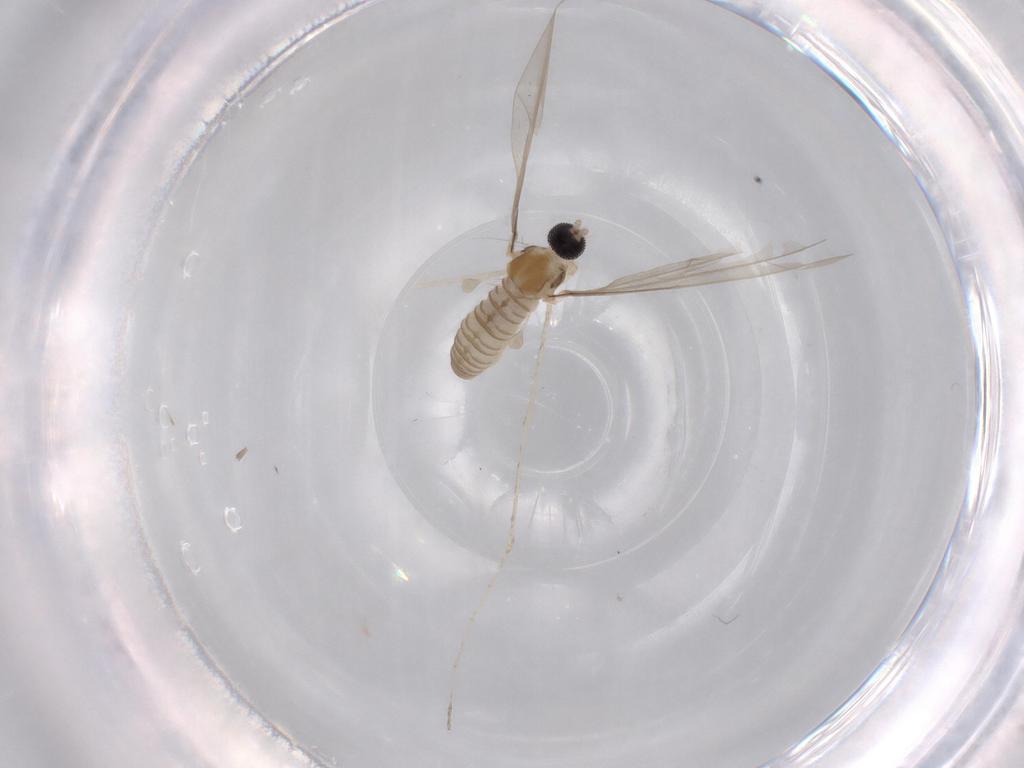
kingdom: Animalia
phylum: Arthropoda
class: Insecta
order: Diptera
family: Cecidomyiidae
